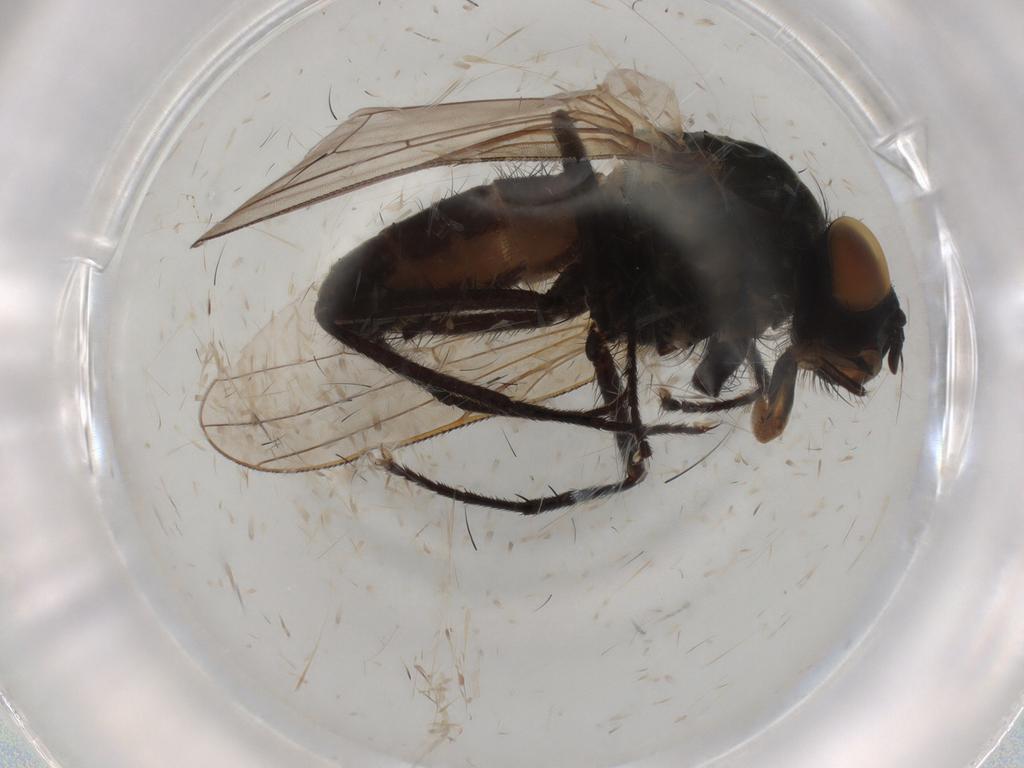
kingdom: Animalia
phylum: Arthropoda
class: Insecta
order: Diptera
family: Anthomyiidae
